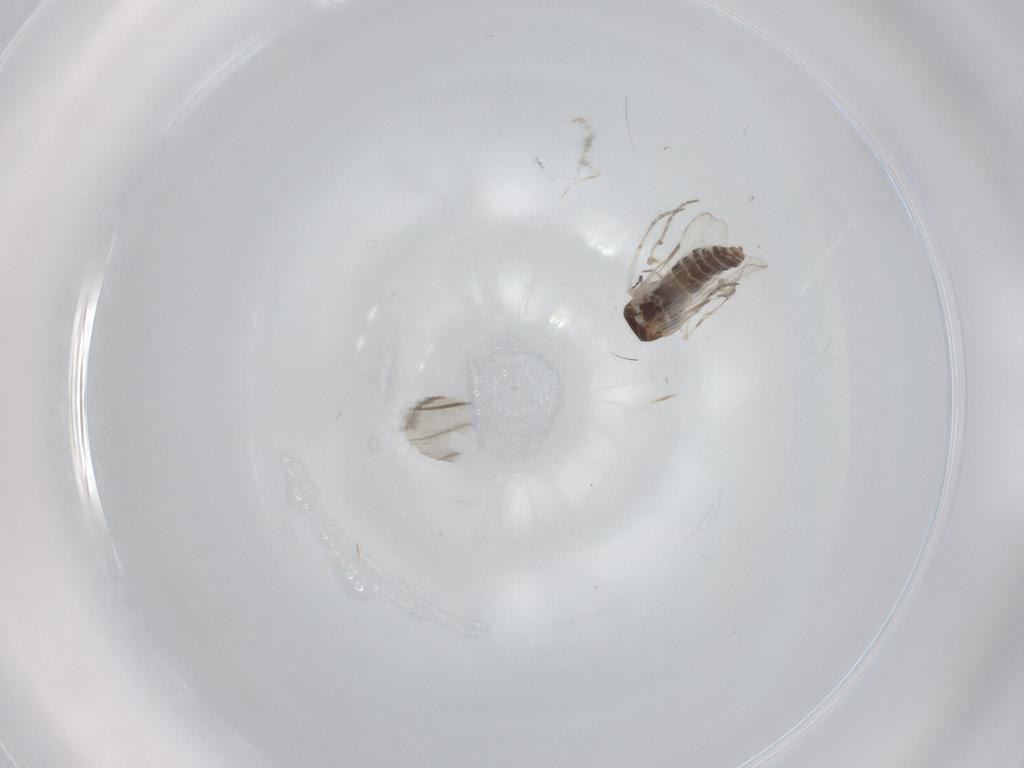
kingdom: Animalia
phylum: Arthropoda
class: Insecta
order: Diptera
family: Ceratopogonidae
